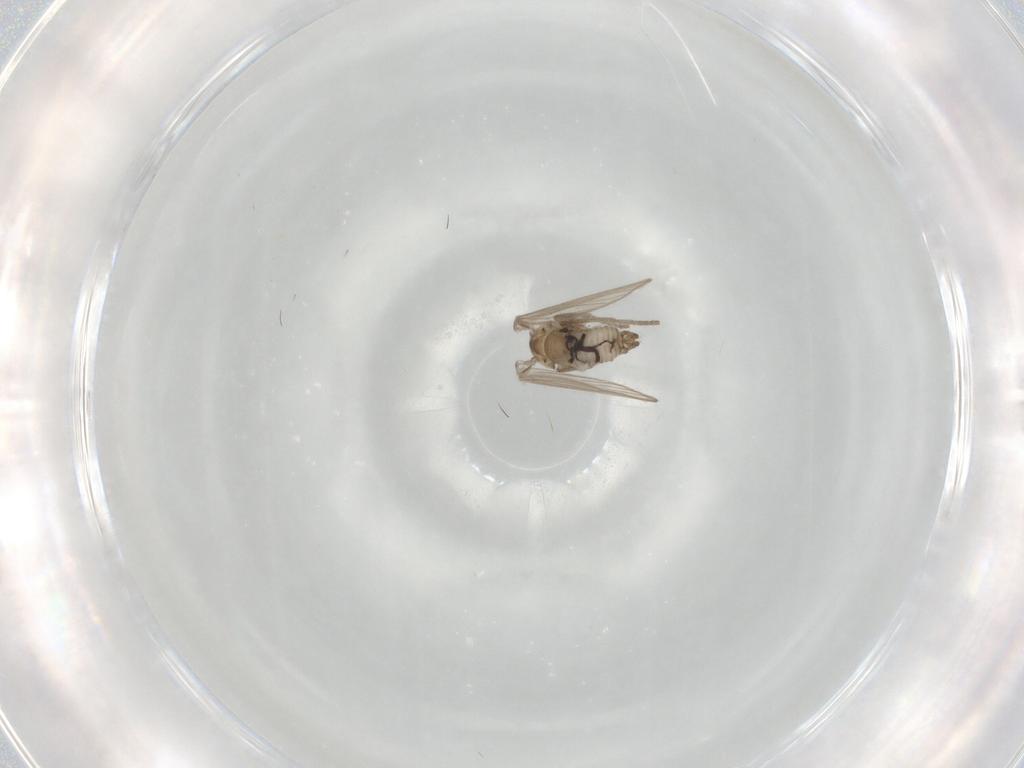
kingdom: Animalia
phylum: Arthropoda
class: Insecta
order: Diptera
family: Psychodidae
